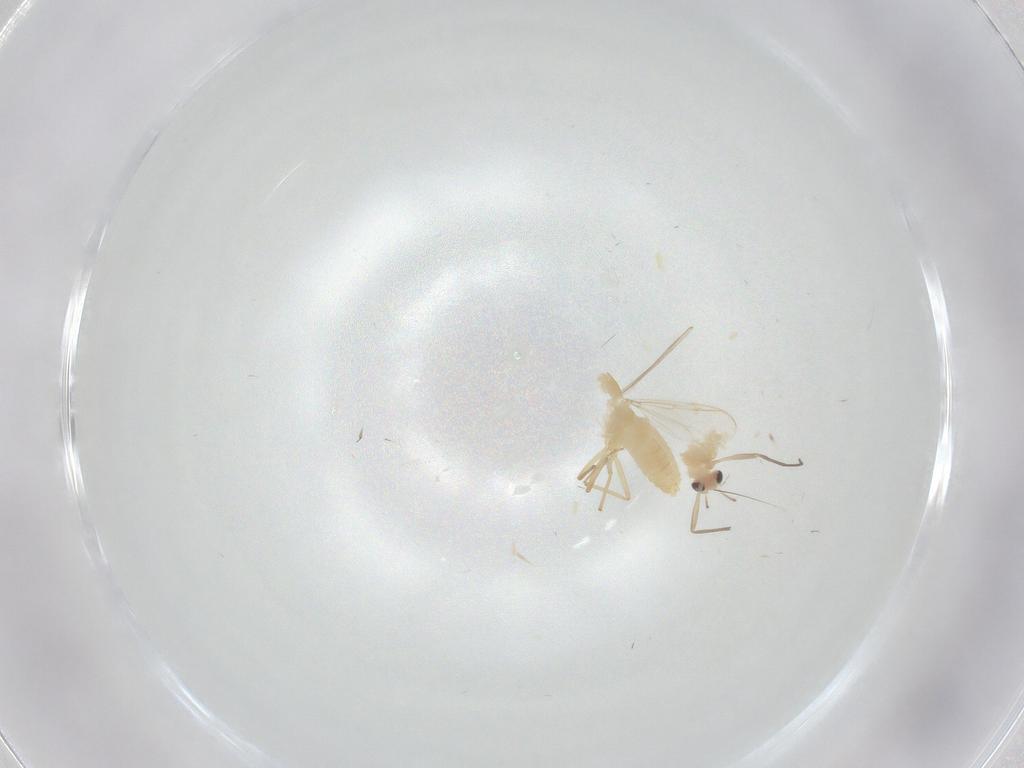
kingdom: Animalia
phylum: Arthropoda
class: Insecta
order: Diptera
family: Chironomidae
